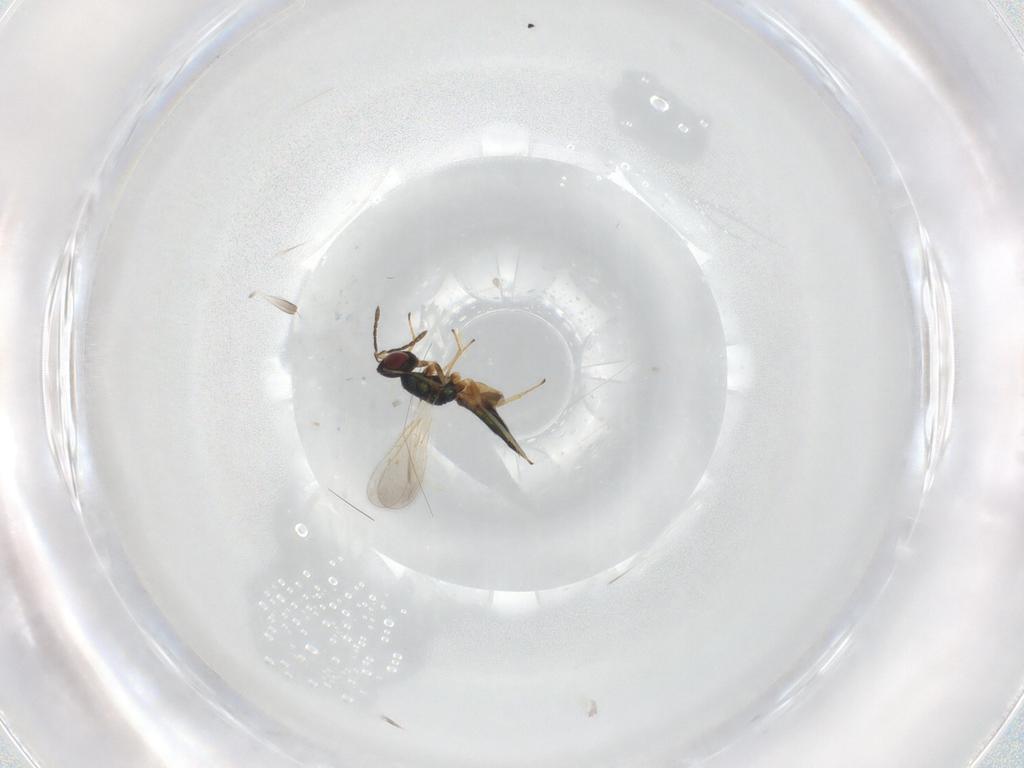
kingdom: Animalia
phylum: Arthropoda
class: Insecta
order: Hymenoptera
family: Eulophidae
